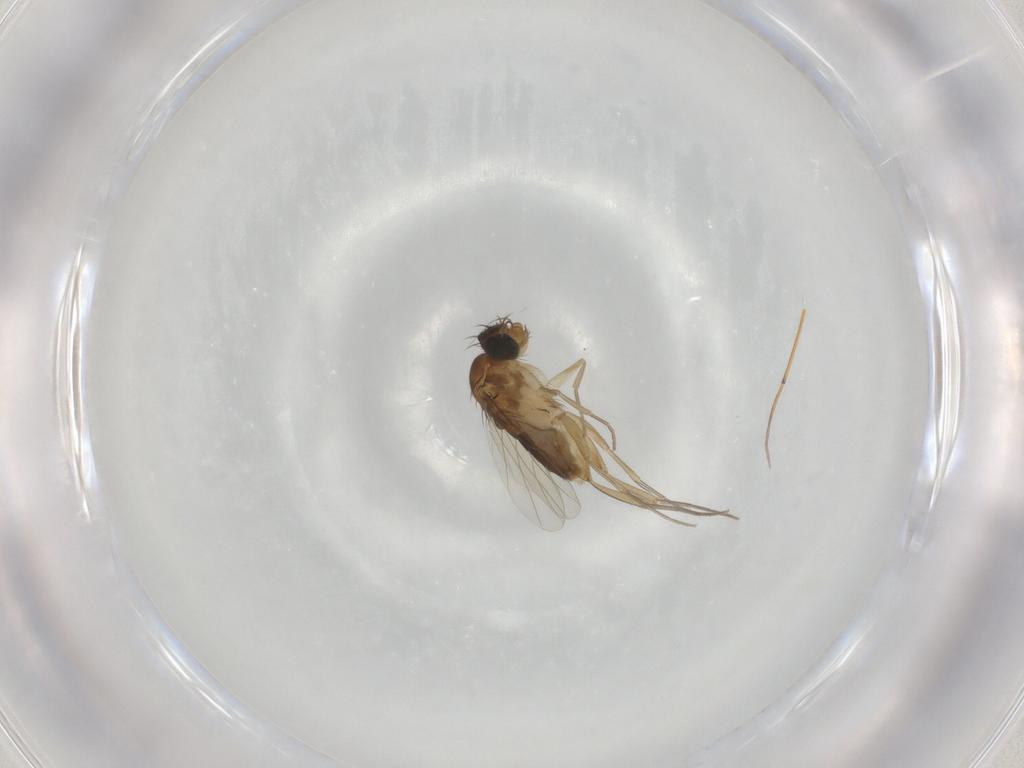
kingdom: Animalia
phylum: Arthropoda
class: Insecta
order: Diptera
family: Phoridae
